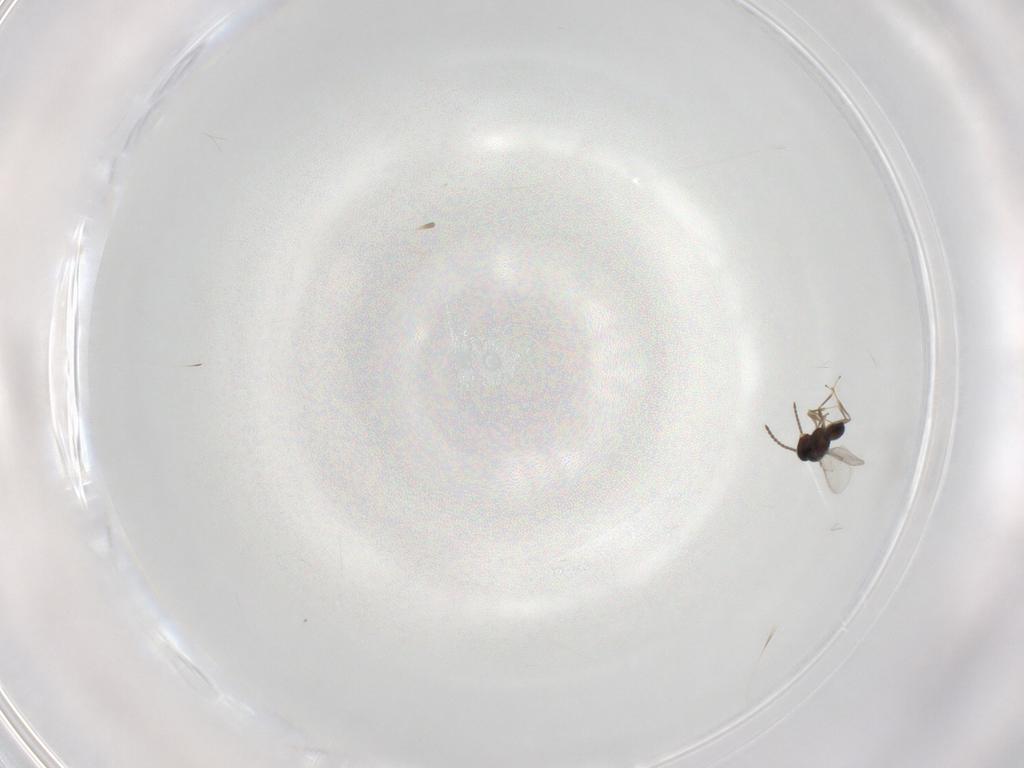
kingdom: Animalia
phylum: Arthropoda
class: Insecta
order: Hymenoptera
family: Scelionidae
